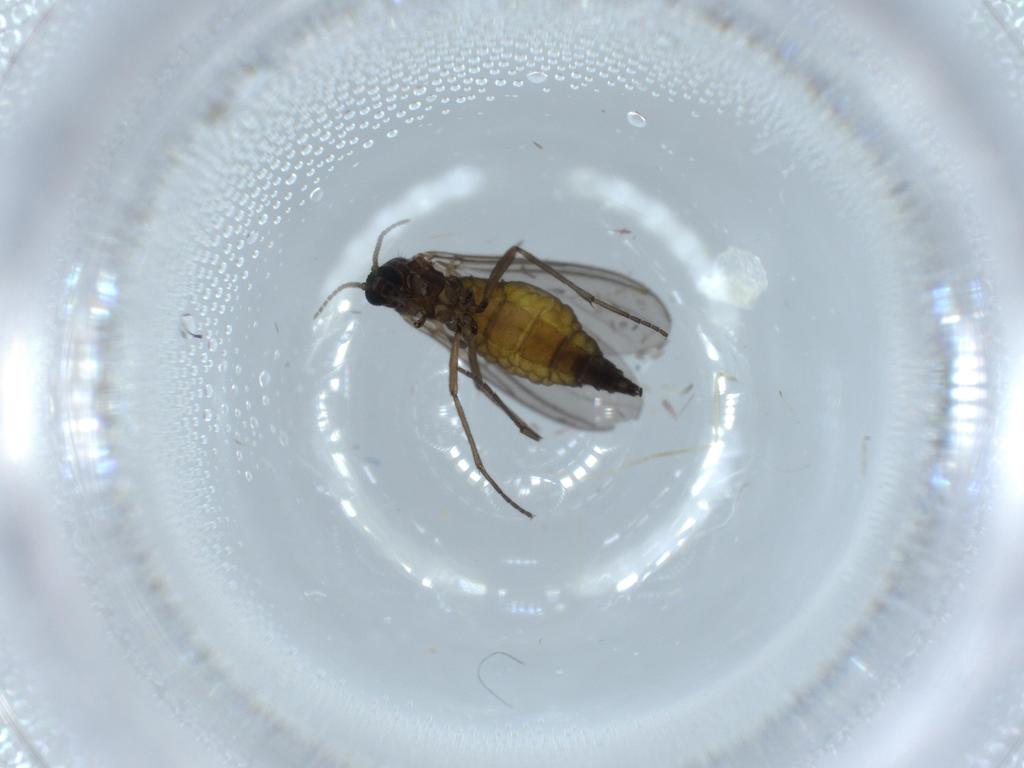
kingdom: Animalia
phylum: Arthropoda
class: Insecta
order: Diptera
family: Sciaridae
